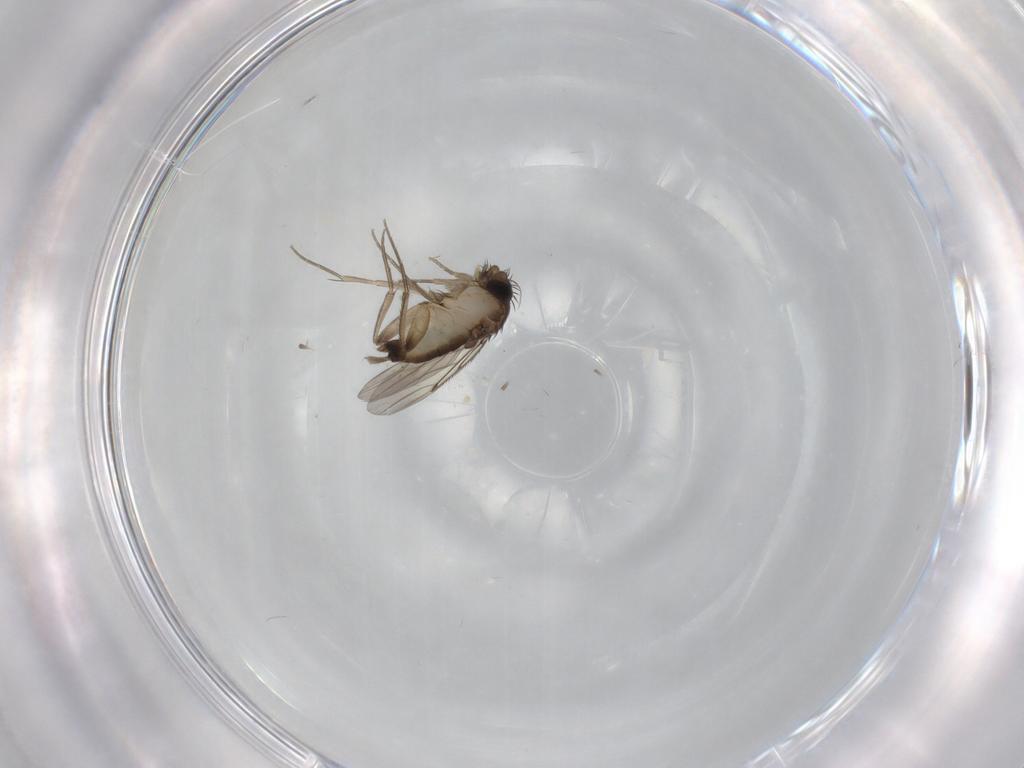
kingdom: Animalia
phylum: Arthropoda
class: Insecta
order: Diptera
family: Phoridae
